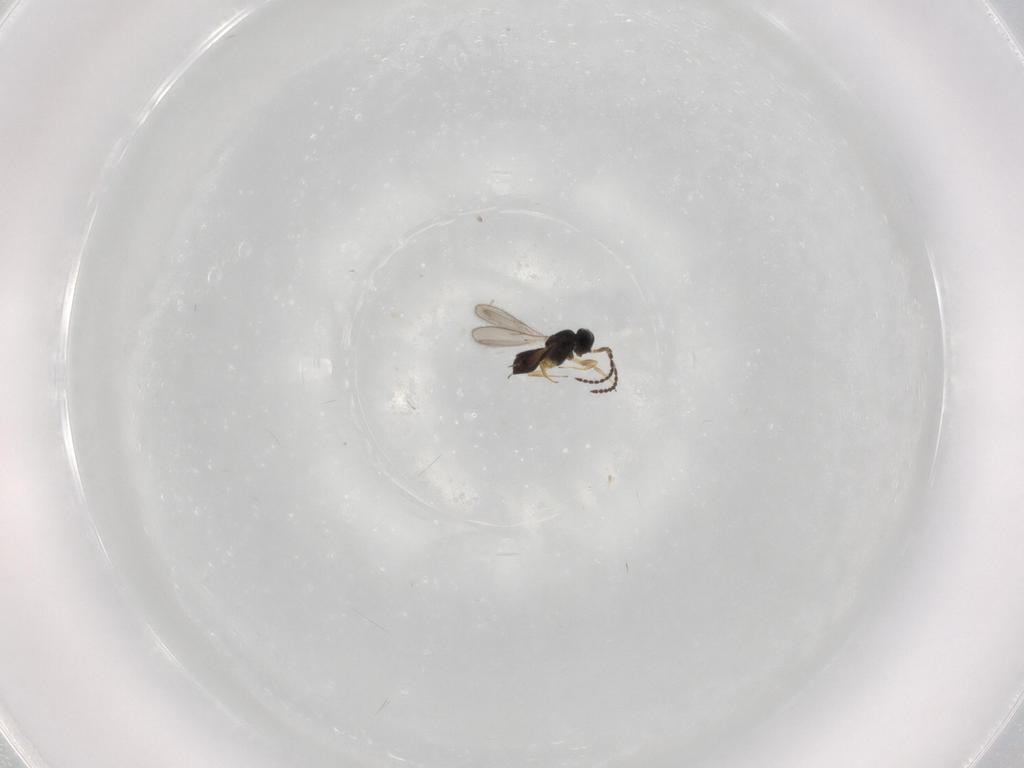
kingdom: Animalia
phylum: Arthropoda
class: Insecta
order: Hymenoptera
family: Scelionidae
